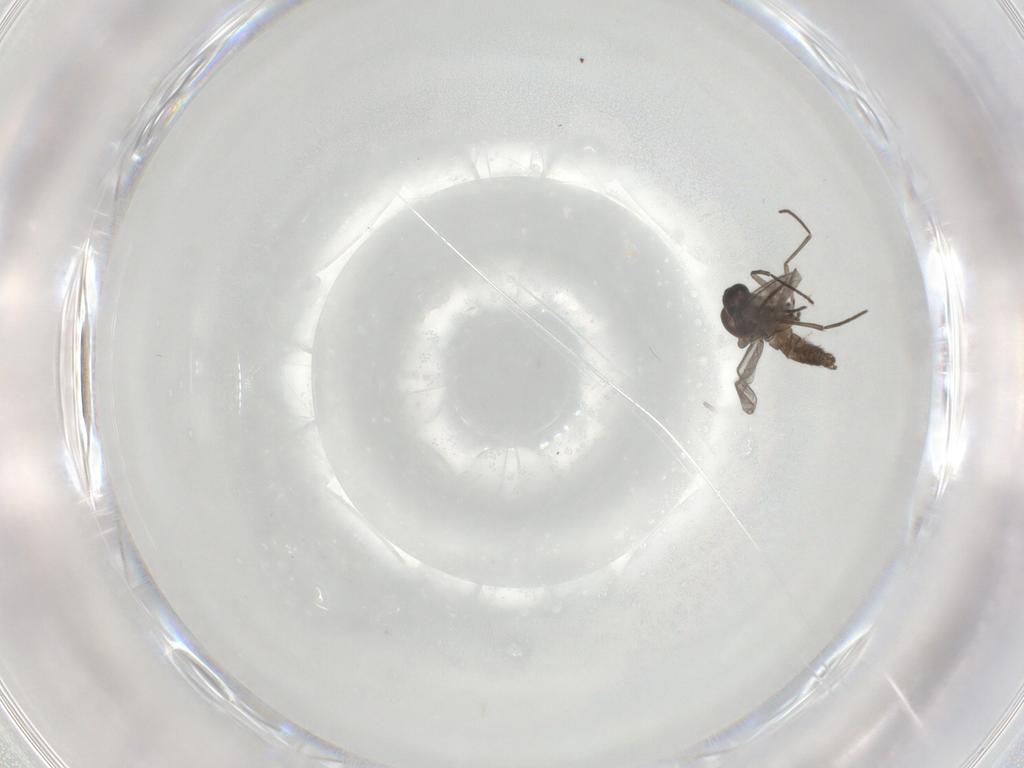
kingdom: Animalia
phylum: Arthropoda
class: Insecta
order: Diptera
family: Chironomidae
